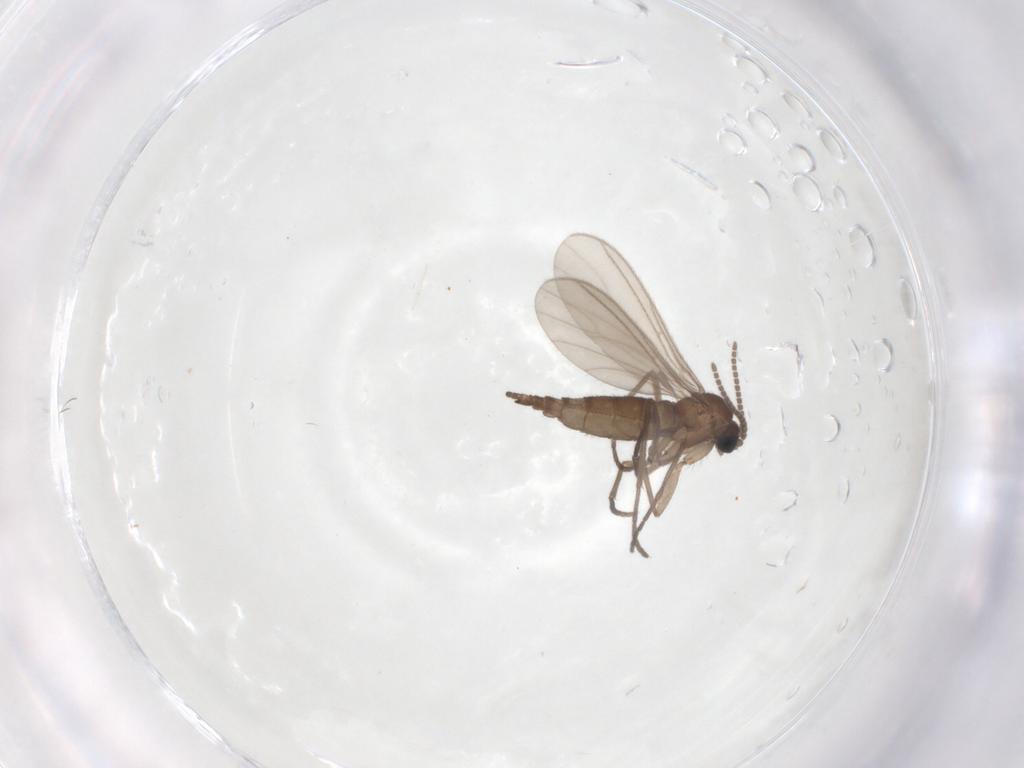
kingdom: Animalia
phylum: Arthropoda
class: Insecta
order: Diptera
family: Sciaridae
